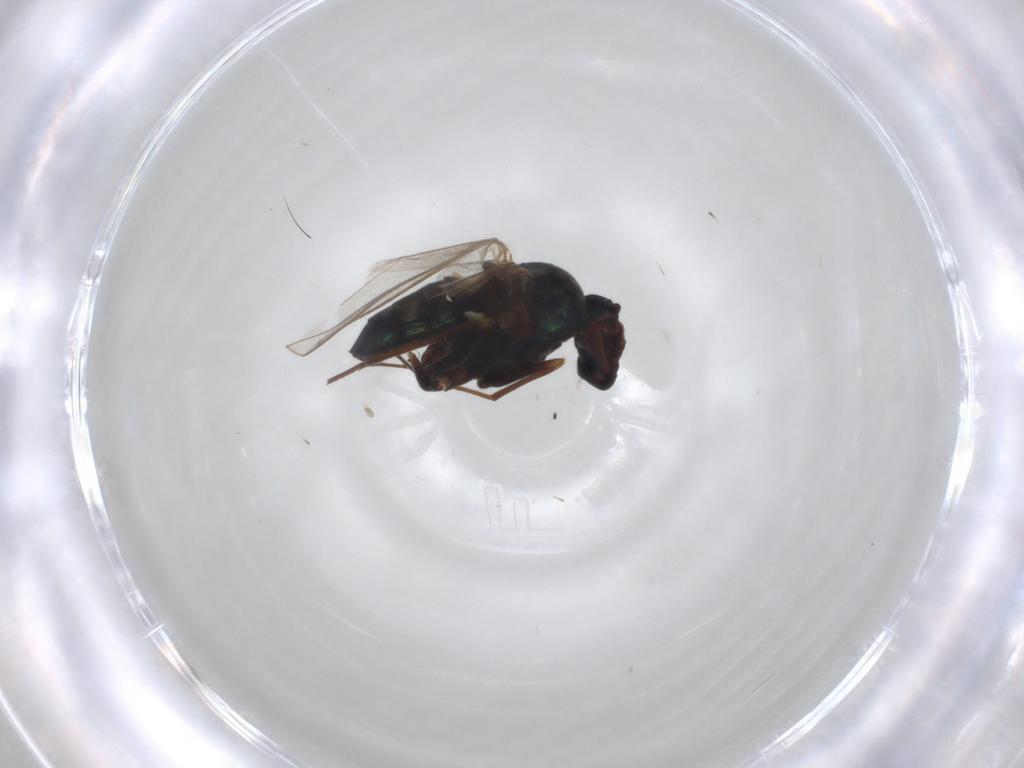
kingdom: Animalia
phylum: Arthropoda
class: Insecta
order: Diptera
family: Dolichopodidae
